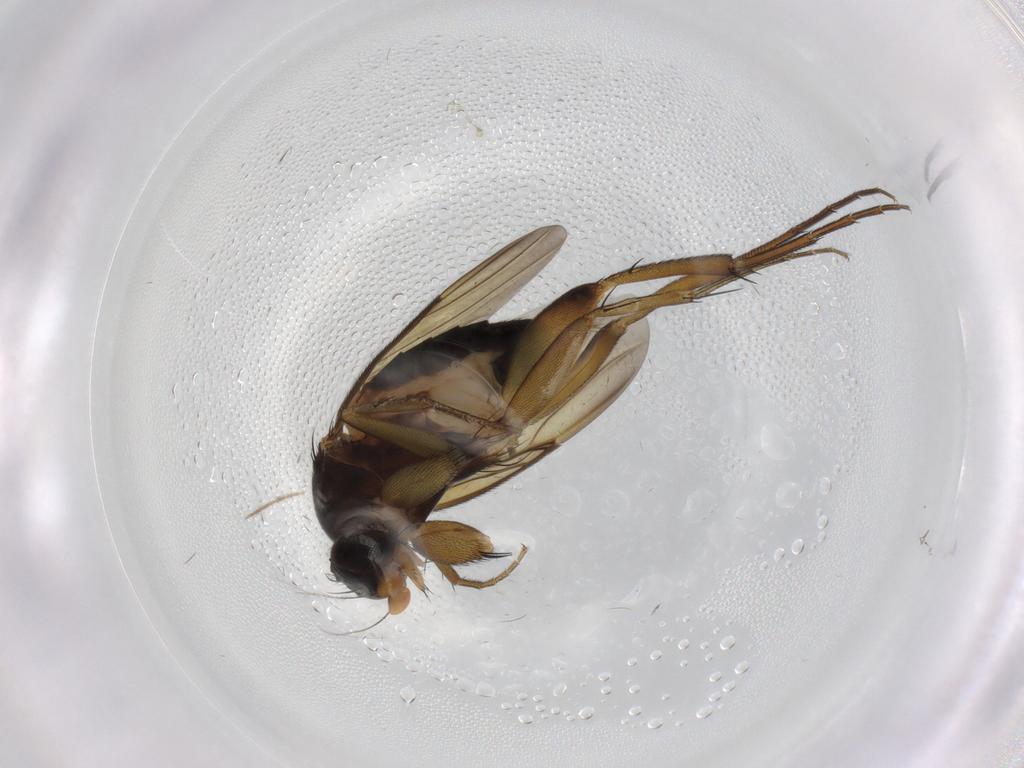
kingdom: Animalia
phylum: Arthropoda
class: Insecta
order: Diptera
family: Phoridae
